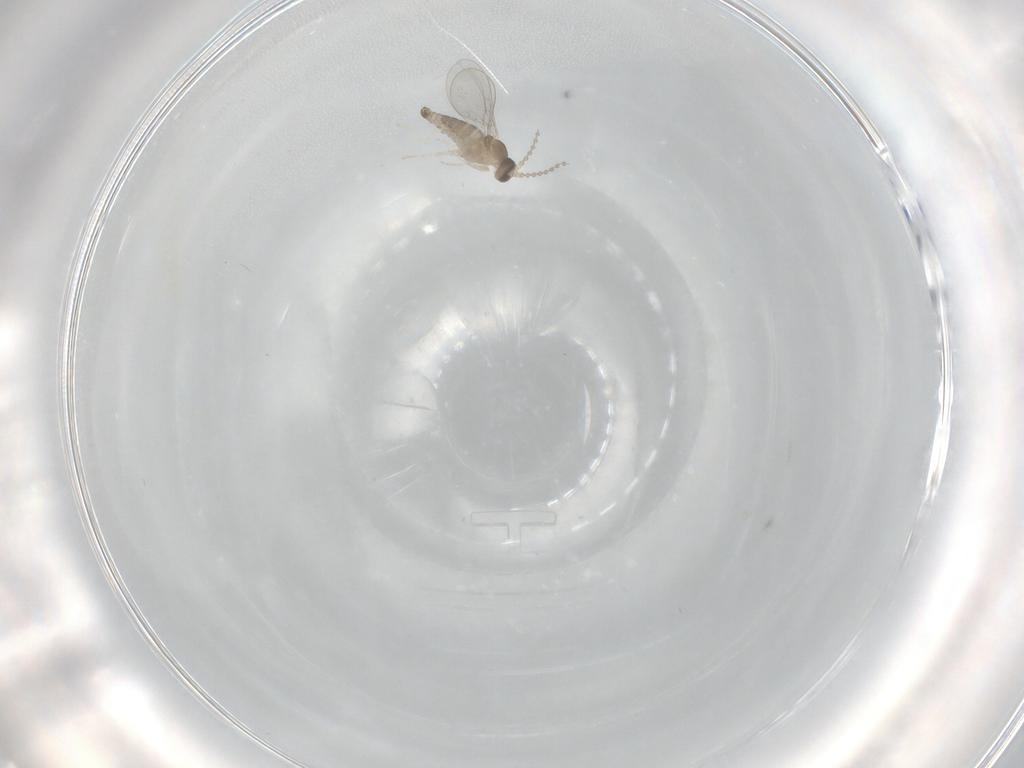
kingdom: Animalia
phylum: Arthropoda
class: Insecta
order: Diptera
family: Cecidomyiidae
